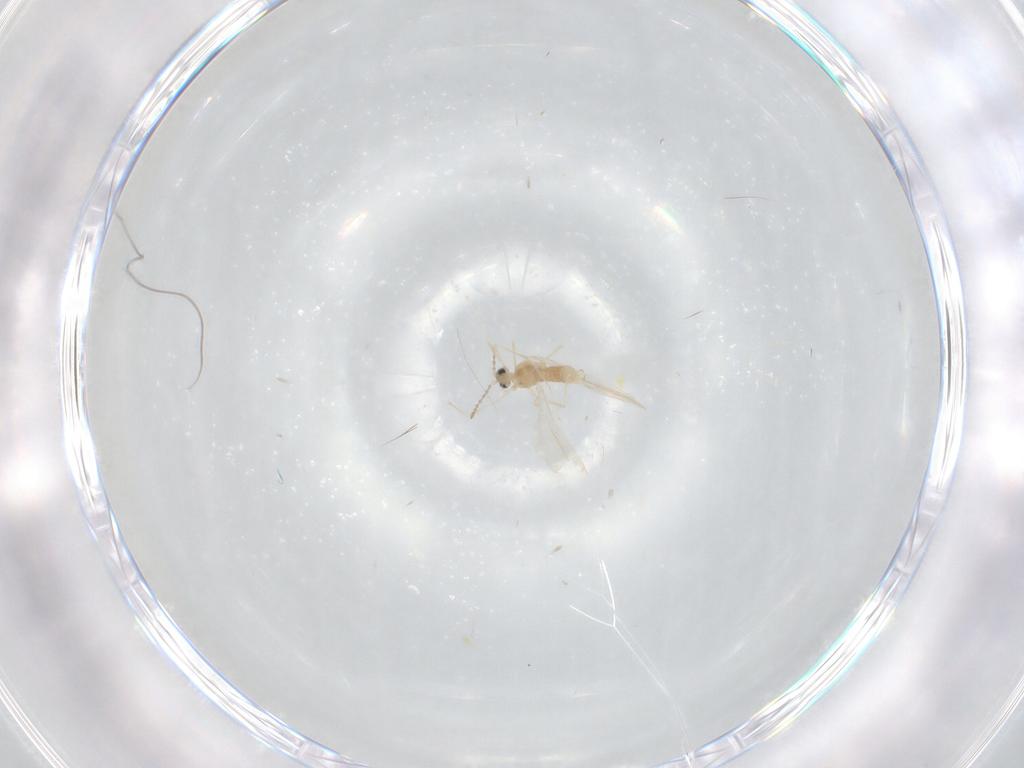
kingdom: Animalia
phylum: Arthropoda
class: Insecta
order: Diptera
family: Cecidomyiidae
